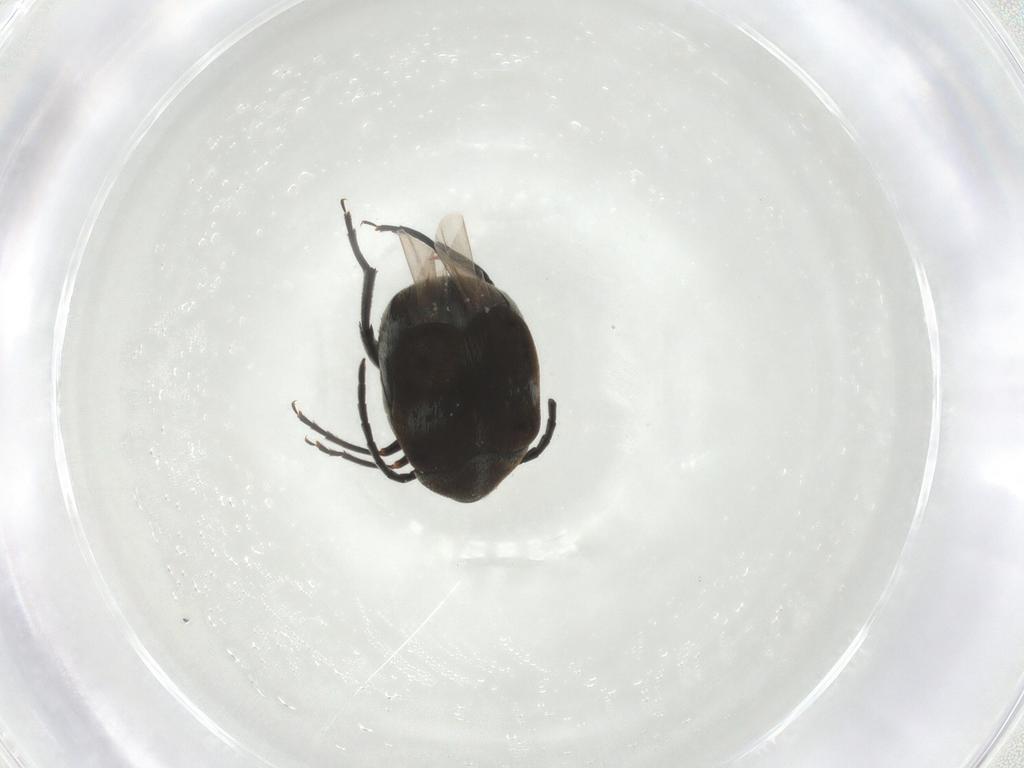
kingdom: Animalia
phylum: Arthropoda
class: Insecta
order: Coleoptera
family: Chrysomelidae
